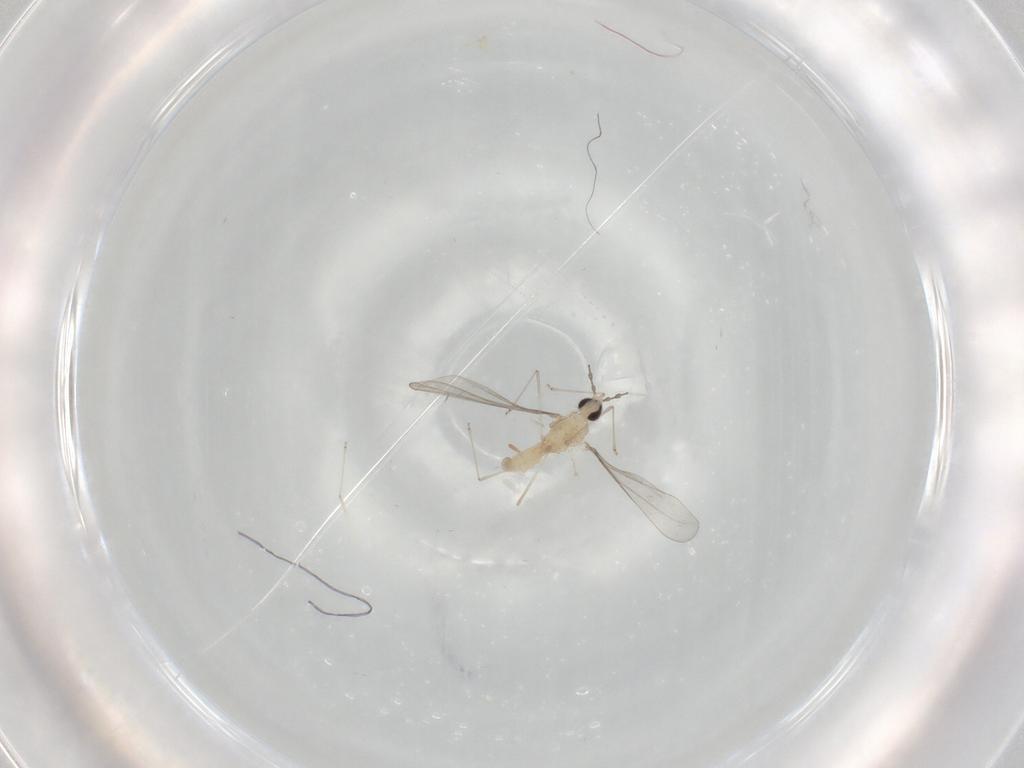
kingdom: Animalia
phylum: Arthropoda
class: Insecta
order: Diptera
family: Cecidomyiidae
